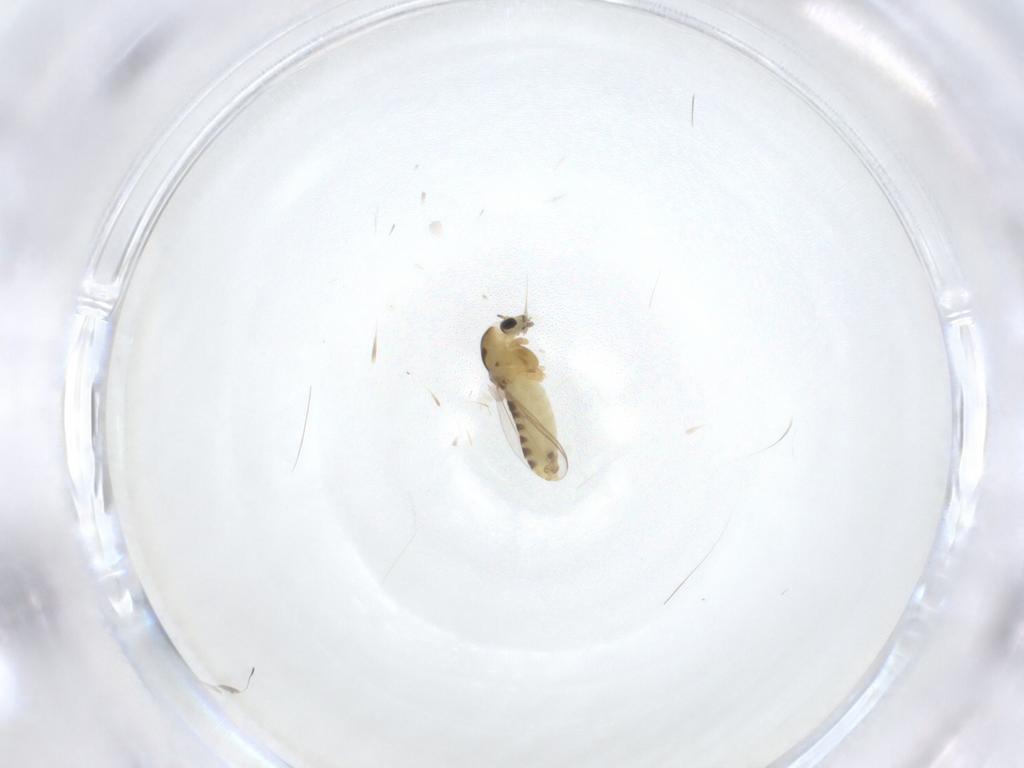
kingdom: Animalia
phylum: Arthropoda
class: Insecta
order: Diptera
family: Chironomidae
